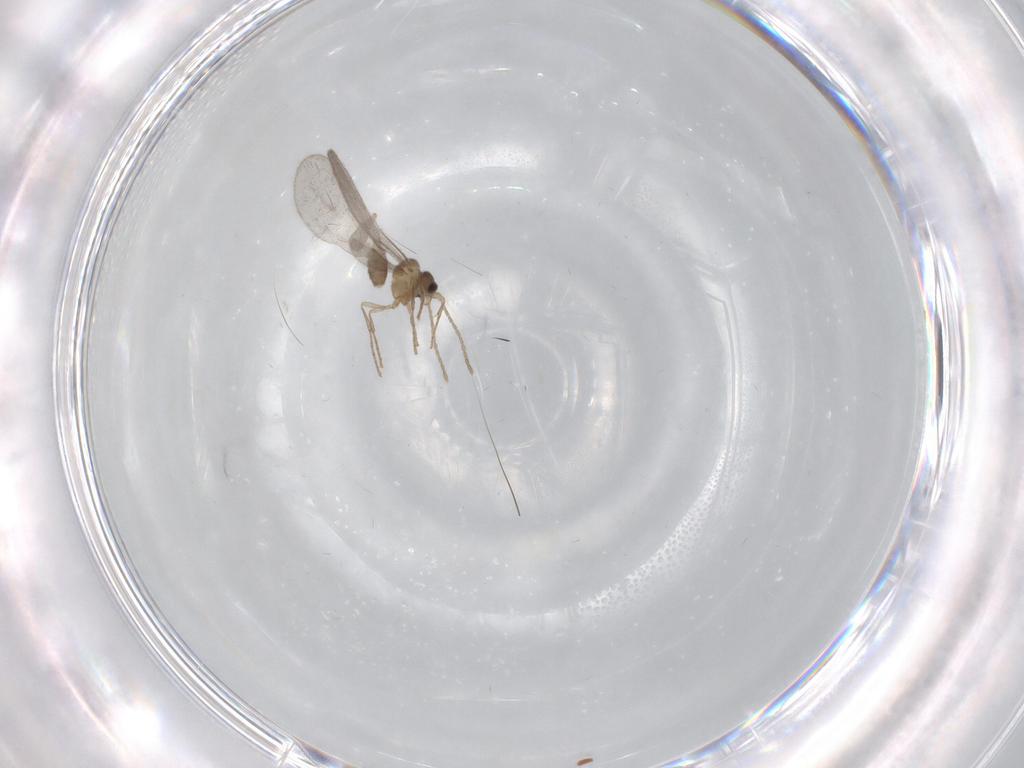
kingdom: Animalia
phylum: Arthropoda
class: Insecta
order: Hymenoptera
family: Formicidae
